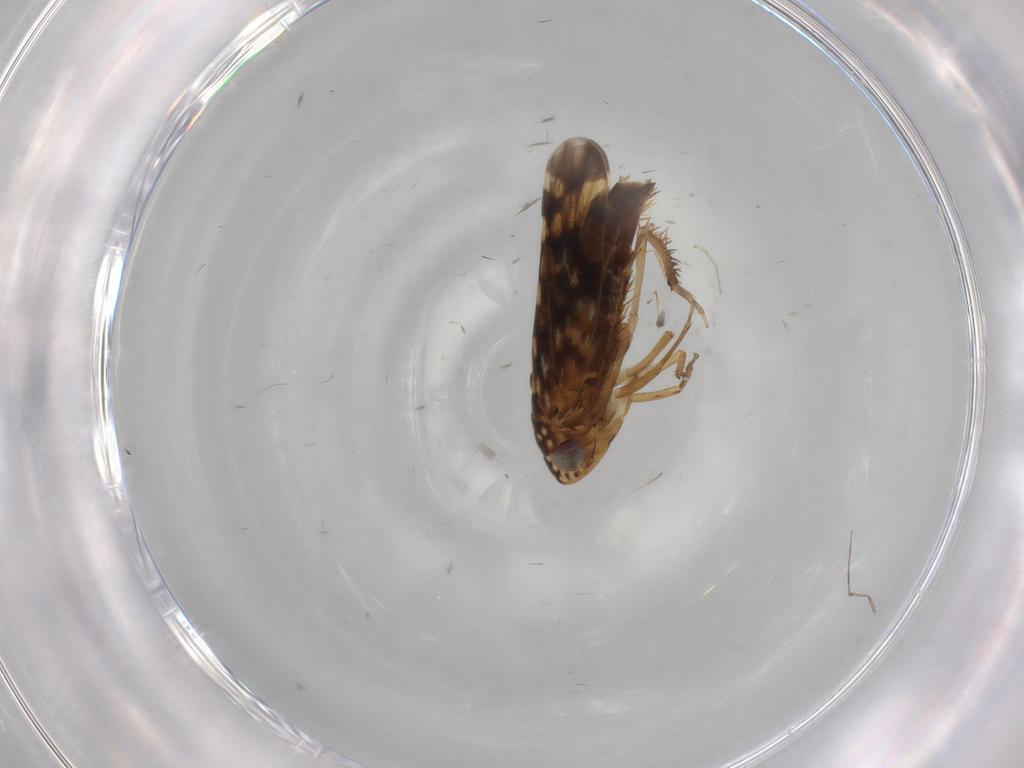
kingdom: Animalia
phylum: Arthropoda
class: Insecta
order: Hemiptera
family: Cicadellidae
